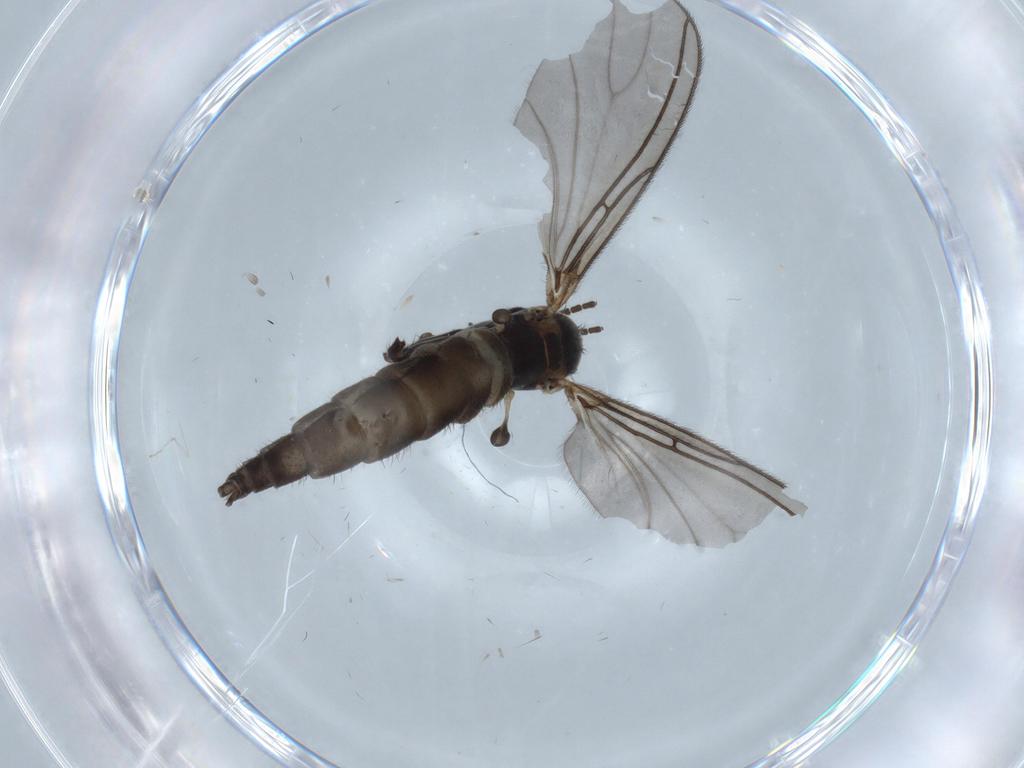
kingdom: Animalia
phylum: Arthropoda
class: Insecta
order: Diptera
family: Sciaridae
